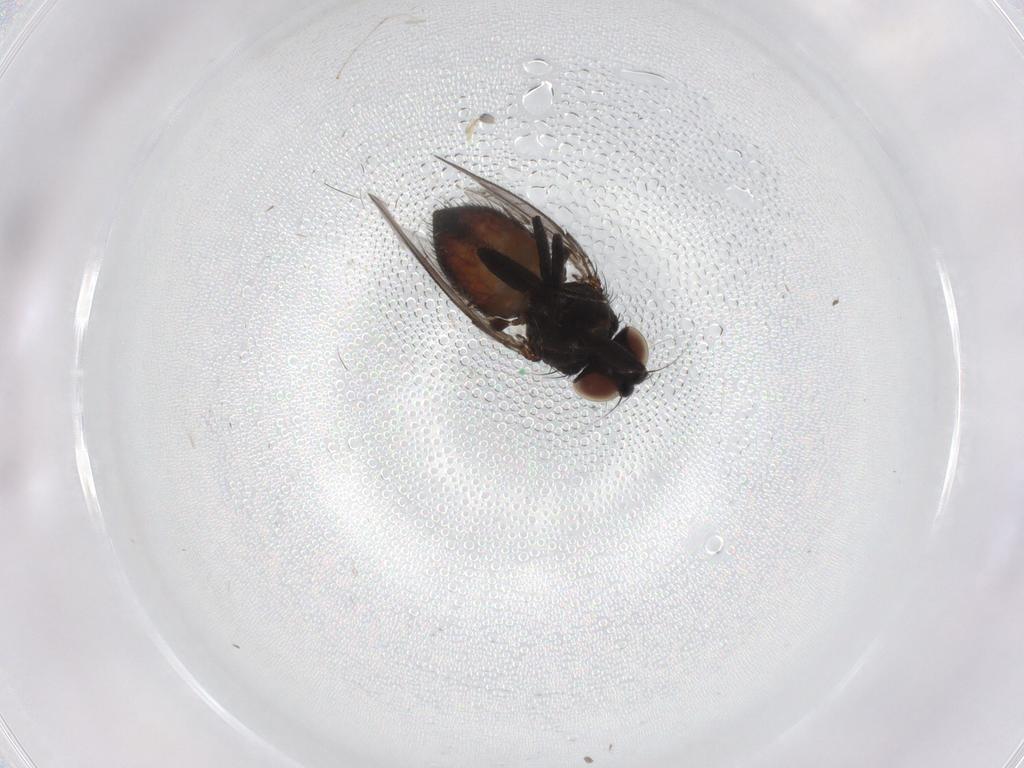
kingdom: Animalia
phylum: Arthropoda
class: Insecta
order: Diptera
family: Milichiidae
